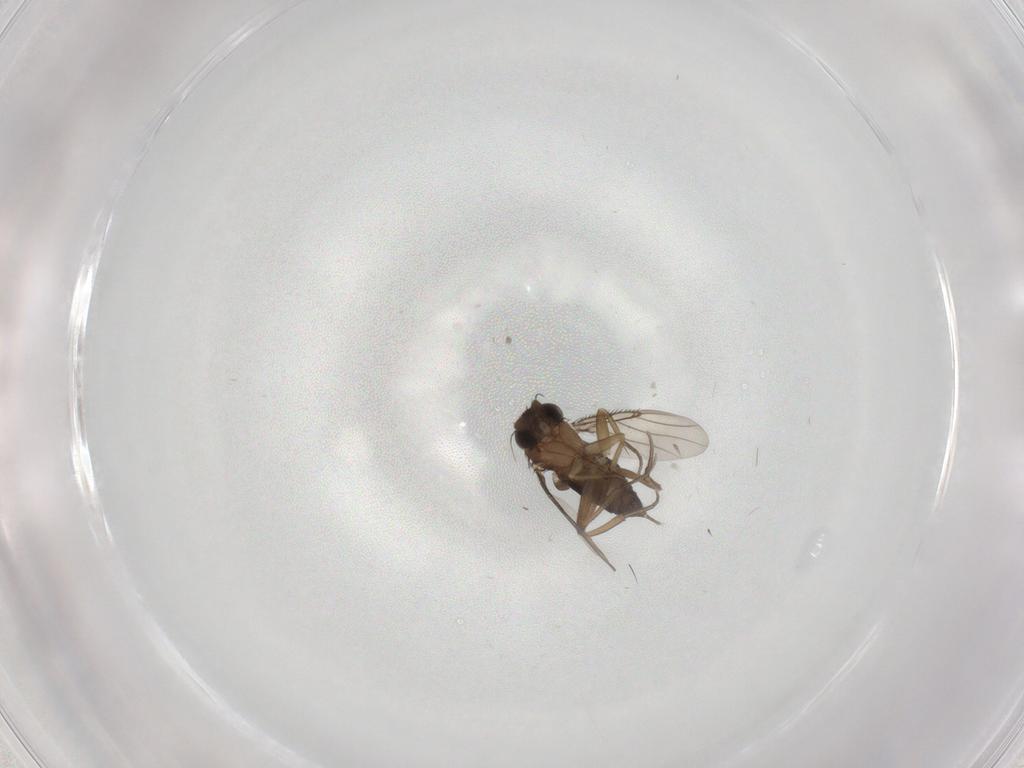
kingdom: Animalia
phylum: Arthropoda
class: Insecta
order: Diptera
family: Phoridae
